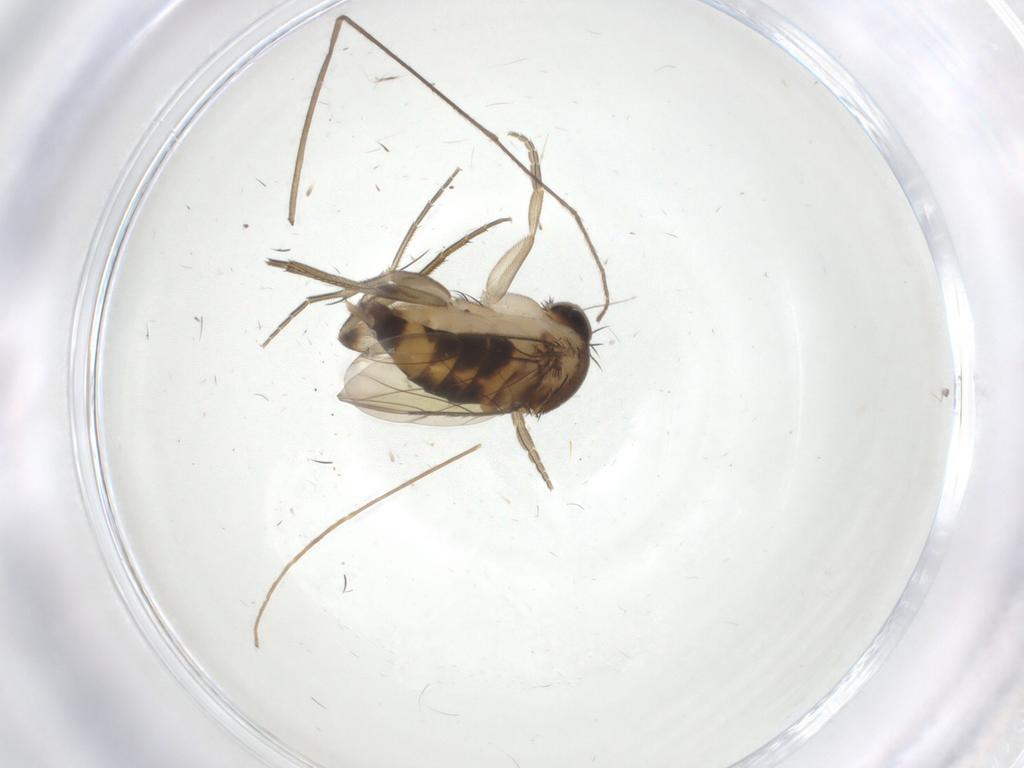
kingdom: Animalia
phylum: Arthropoda
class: Insecta
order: Diptera
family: Chironomidae
